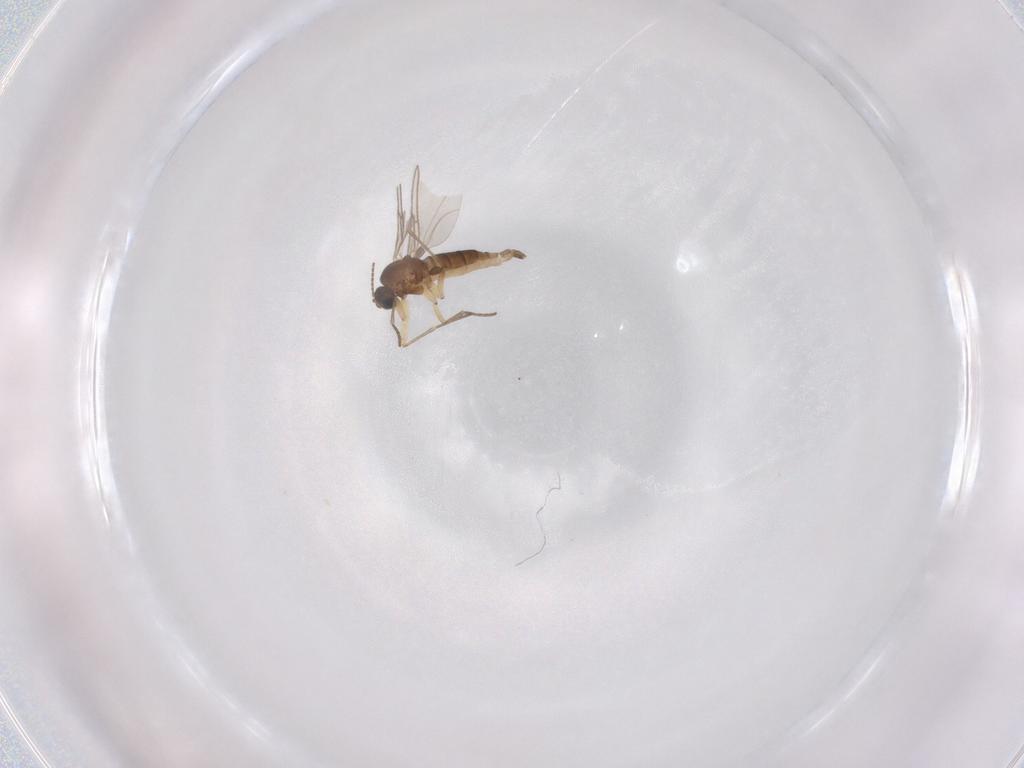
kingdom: Animalia
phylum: Arthropoda
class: Insecta
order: Diptera
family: Sciaridae
